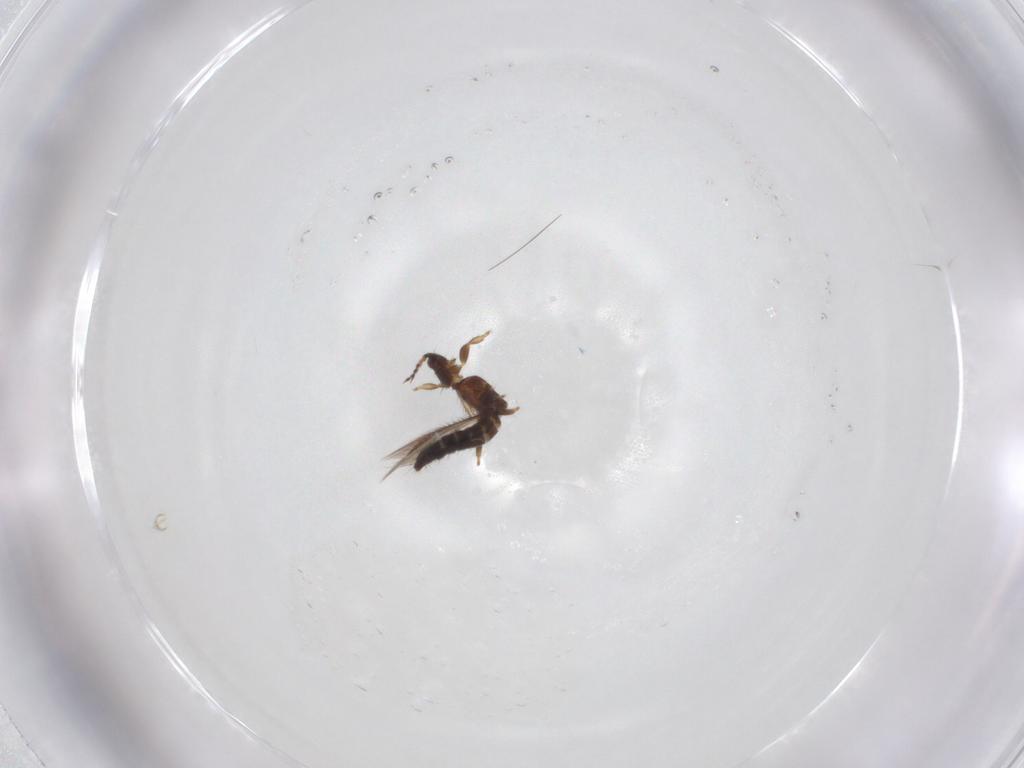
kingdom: Animalia
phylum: Arthropoda
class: Insecta
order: Thysanoptera
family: Thripidae
